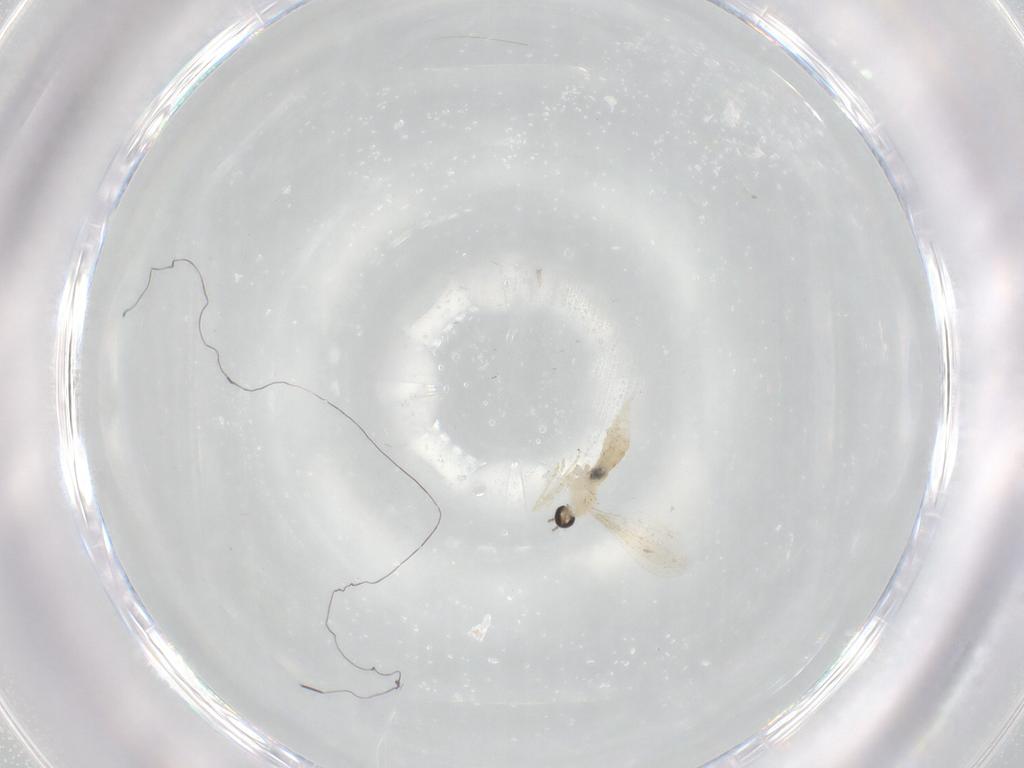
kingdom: Animalia
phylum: Arthropoda
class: Insecta
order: Diptera
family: Cecidomyiidae
